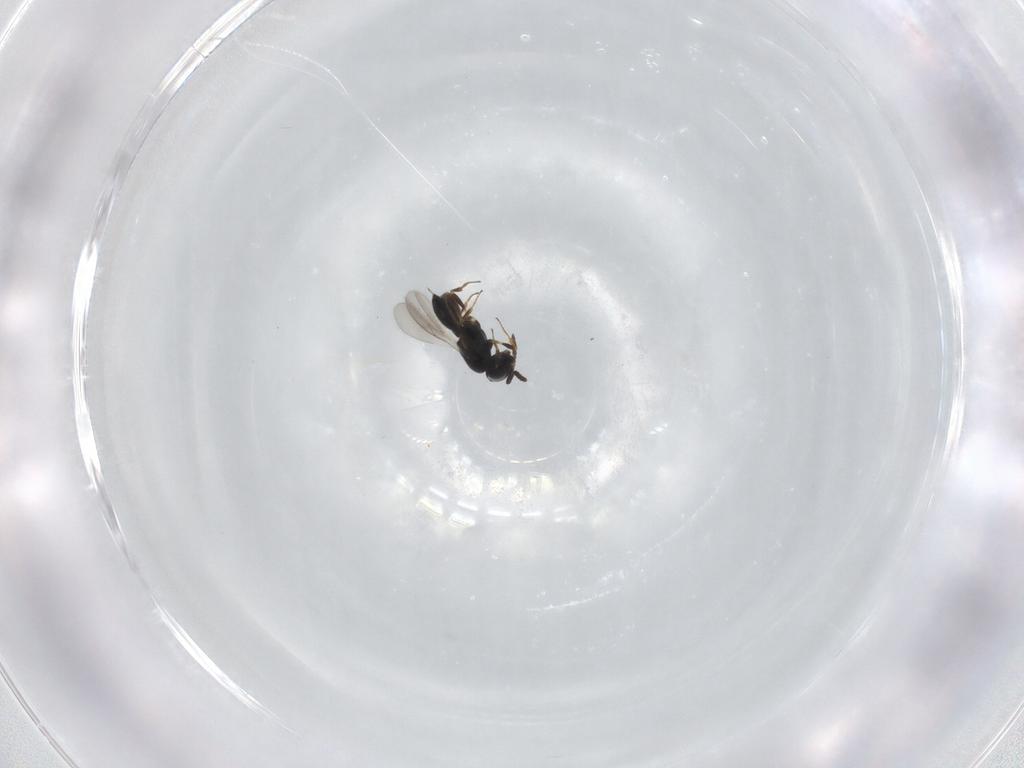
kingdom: Animalia
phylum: Arthropoda
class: Insecta
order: Hymenoptera
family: Scelionidae
